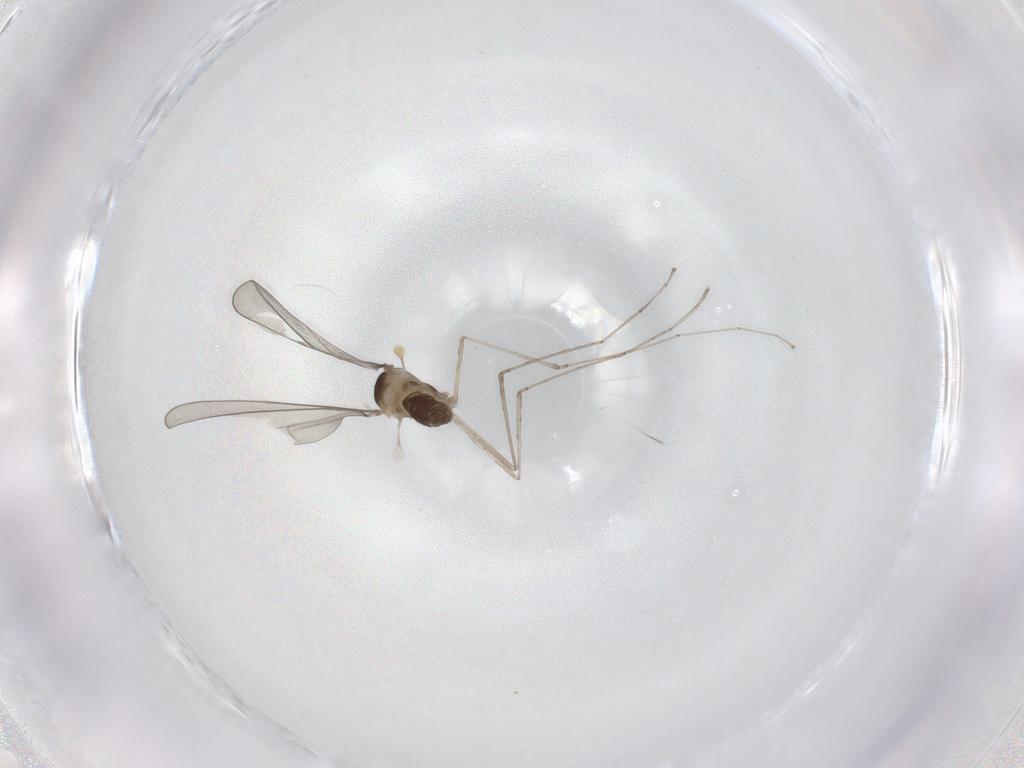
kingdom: Animalia
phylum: Arthropoda
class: Insecta
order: Diptera
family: Cecidomyiidae
